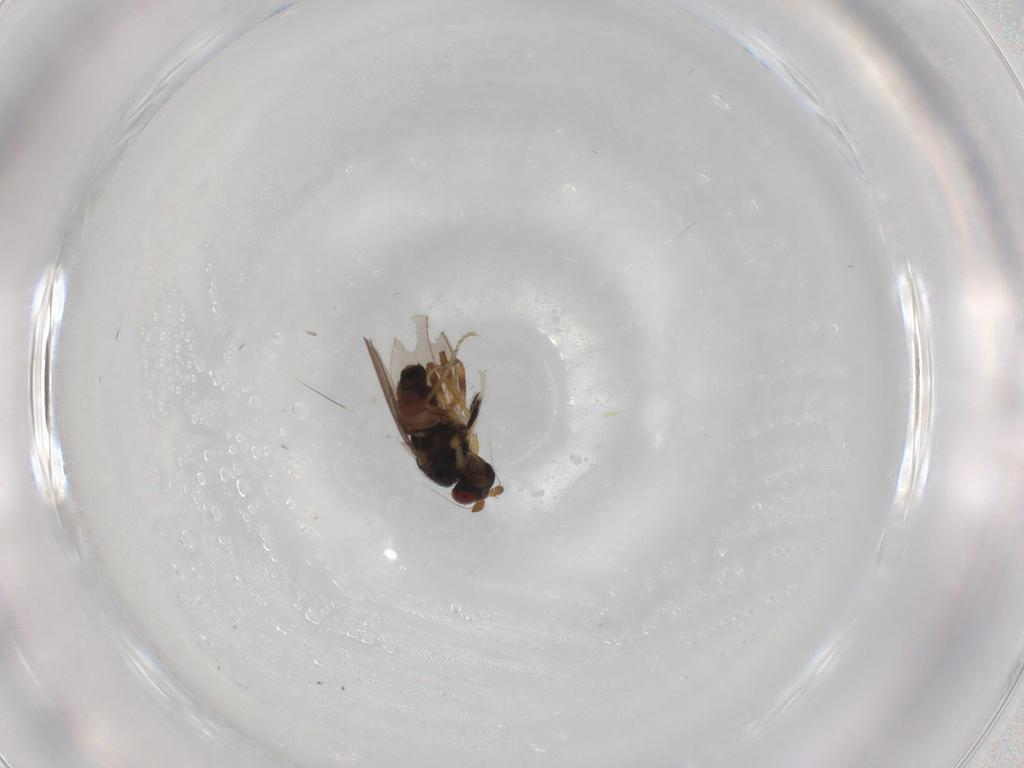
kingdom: Animalia
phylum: Arthropoda
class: Insecta
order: Diptera
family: Sphaeroceridae
